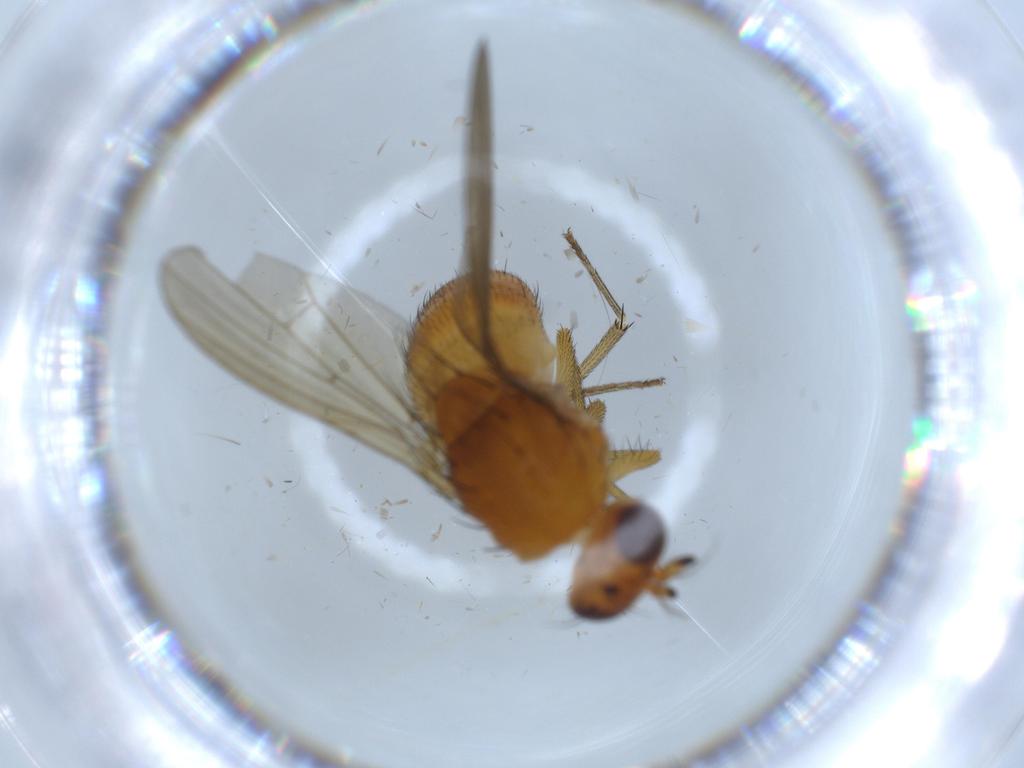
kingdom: Animalia
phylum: Arthropoda
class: Insecta
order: Diptera
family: Lauxaniidae
